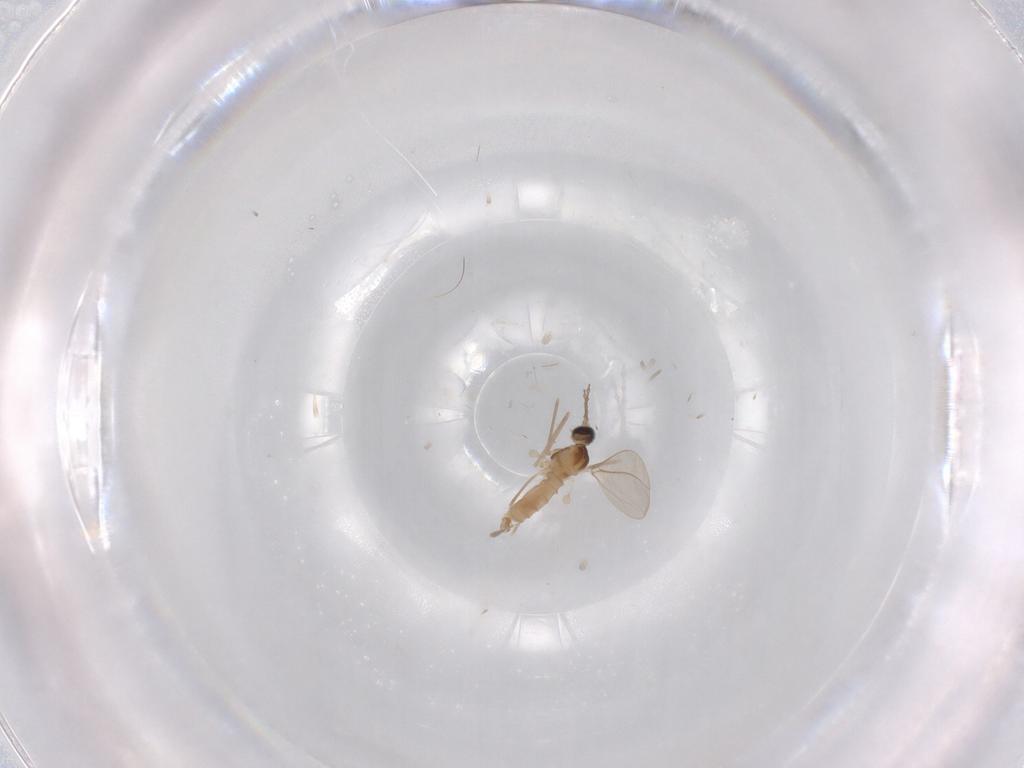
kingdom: Animalia
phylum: Arthropoda
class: Insecta
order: Diptera
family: Cecidomyiidae
